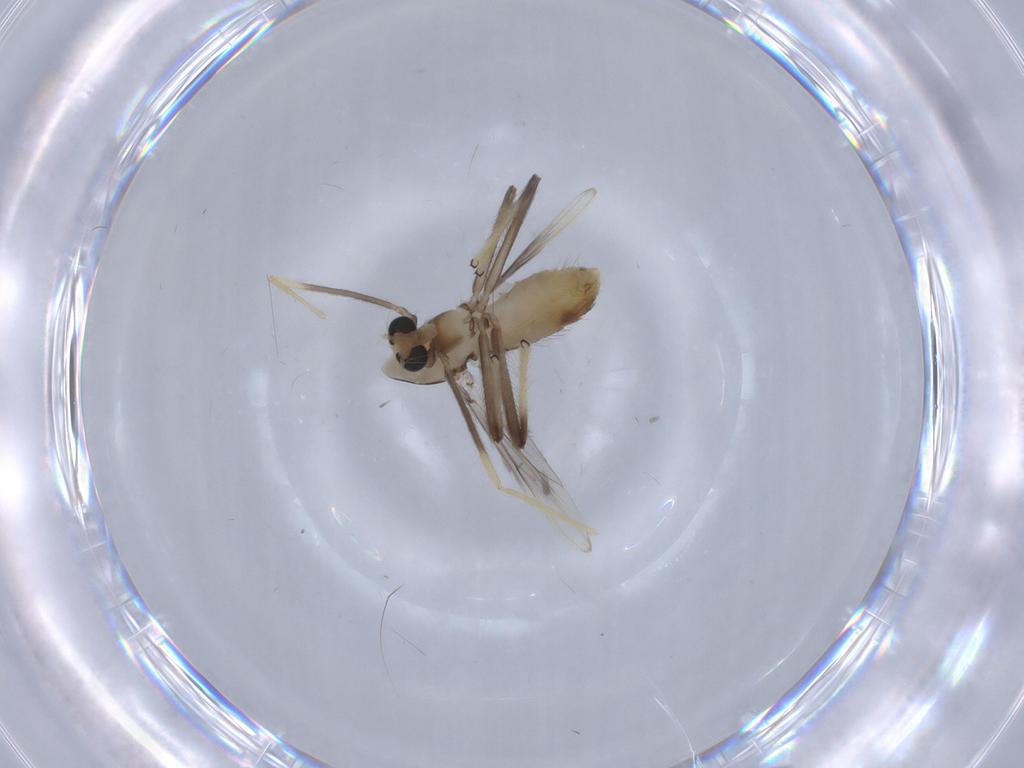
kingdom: Animalia
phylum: Arthropoda
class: Insecta
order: Diptera
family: Chironomidae
